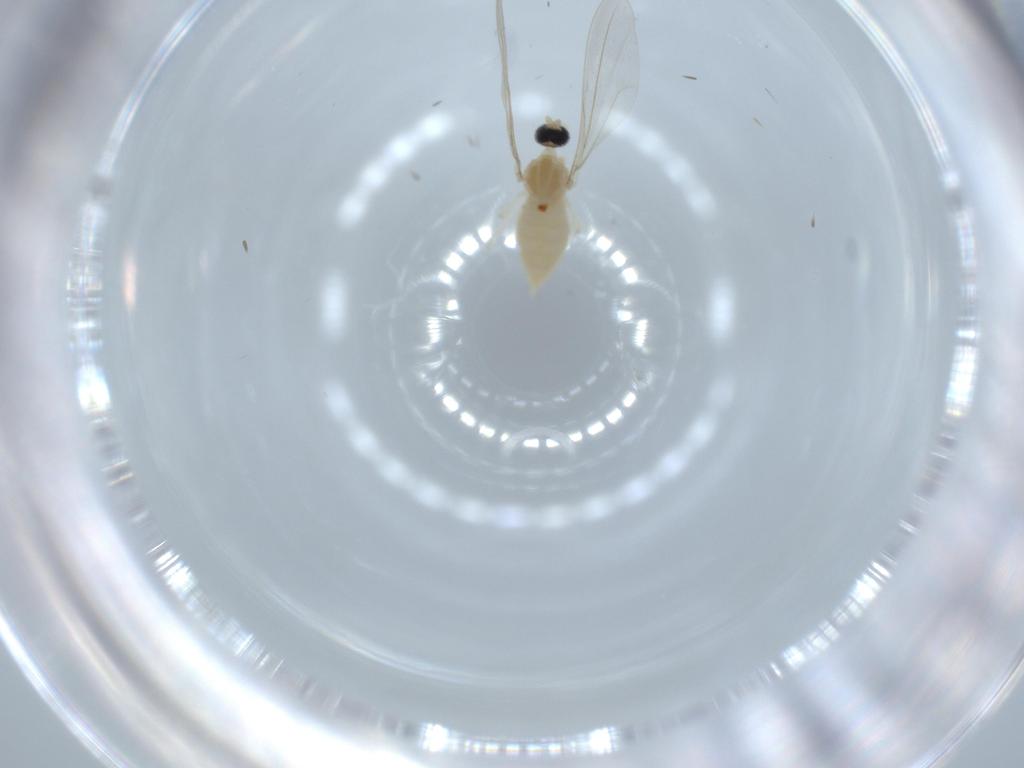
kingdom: Animalia
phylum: Arthropoda
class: Insecta
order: Diptera
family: Cecidomyiidae
